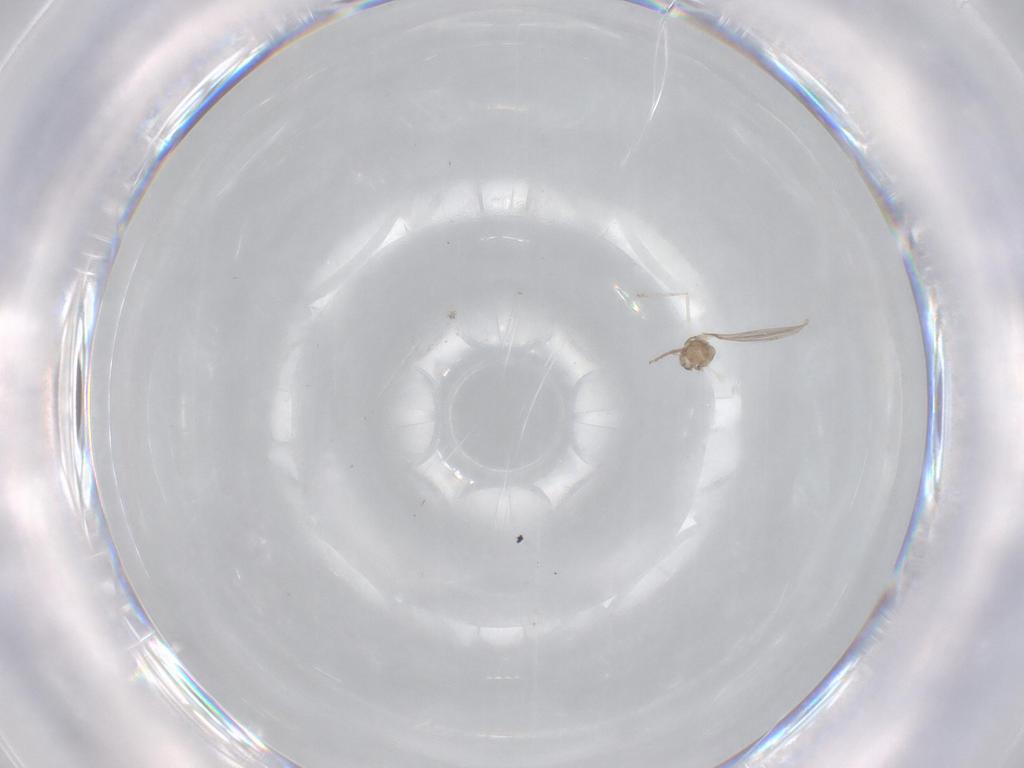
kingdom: Animalia
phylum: Arthropoda
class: Insecta
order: Diptera
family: Cecidomyiidae
